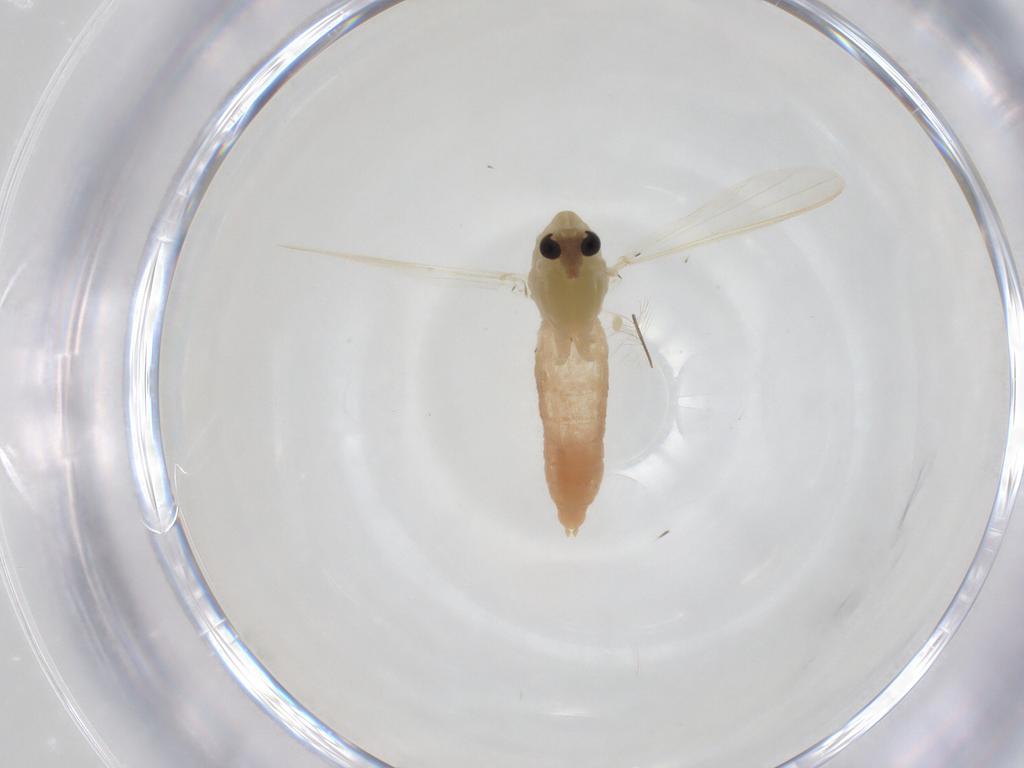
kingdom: Animalia
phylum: Arthropoda
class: Insecta
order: Diptera
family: Chironomidae
